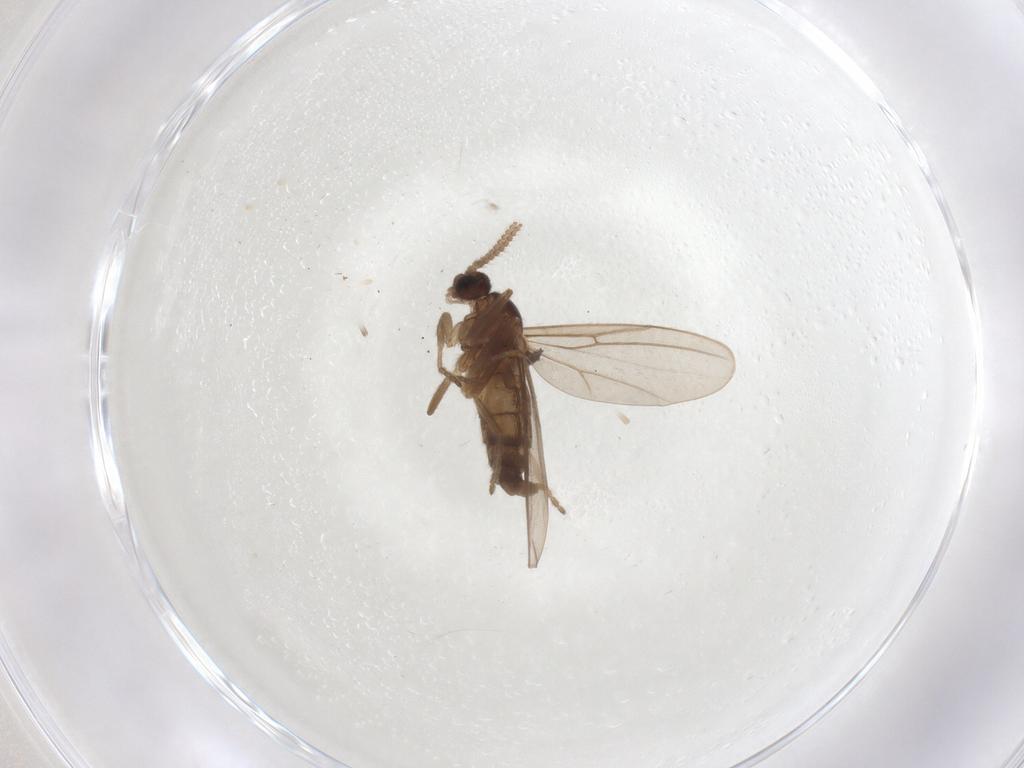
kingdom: Animalia
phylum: Arthropoda
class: Insecta
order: Diptera
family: Cecidomyiidae
